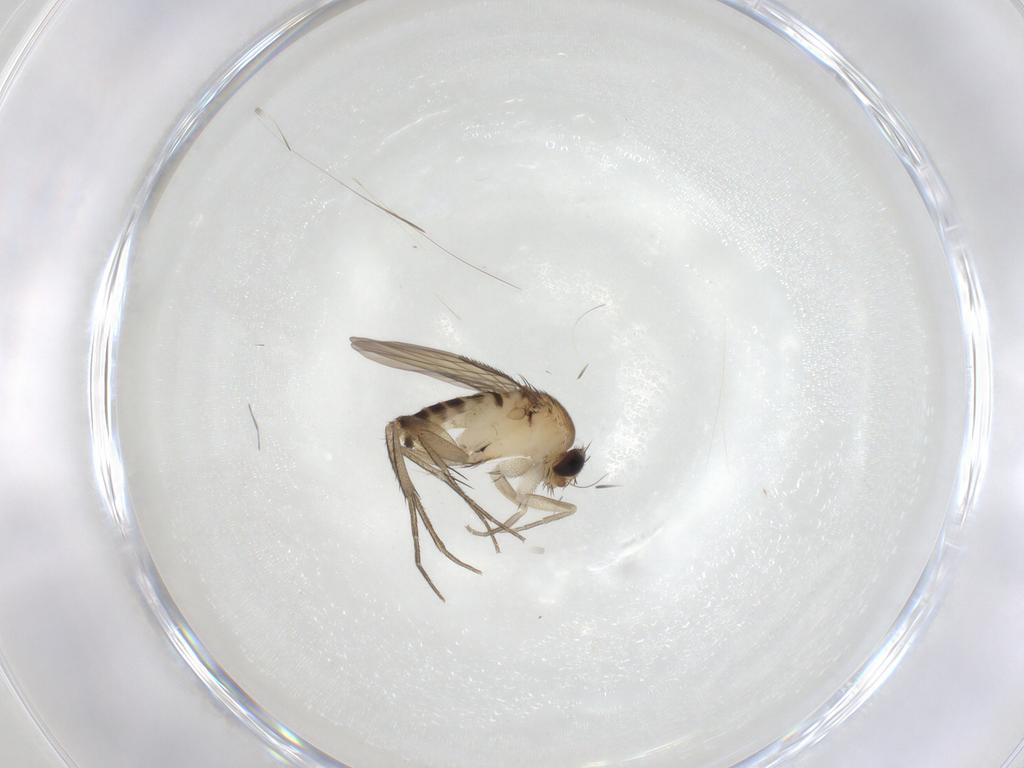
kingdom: Animalia
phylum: Arthropoda
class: Insecta
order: Diptera
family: Phoridae
